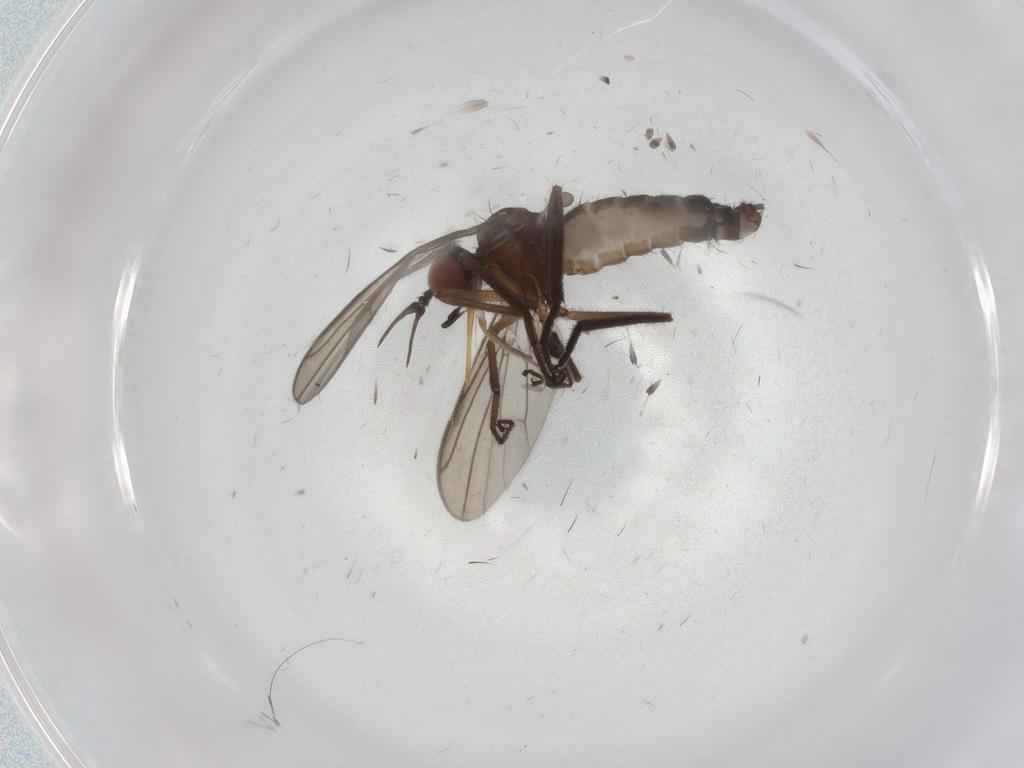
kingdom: Animalia
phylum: Arthropoda
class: Insecta
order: Diptera
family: Empididae
